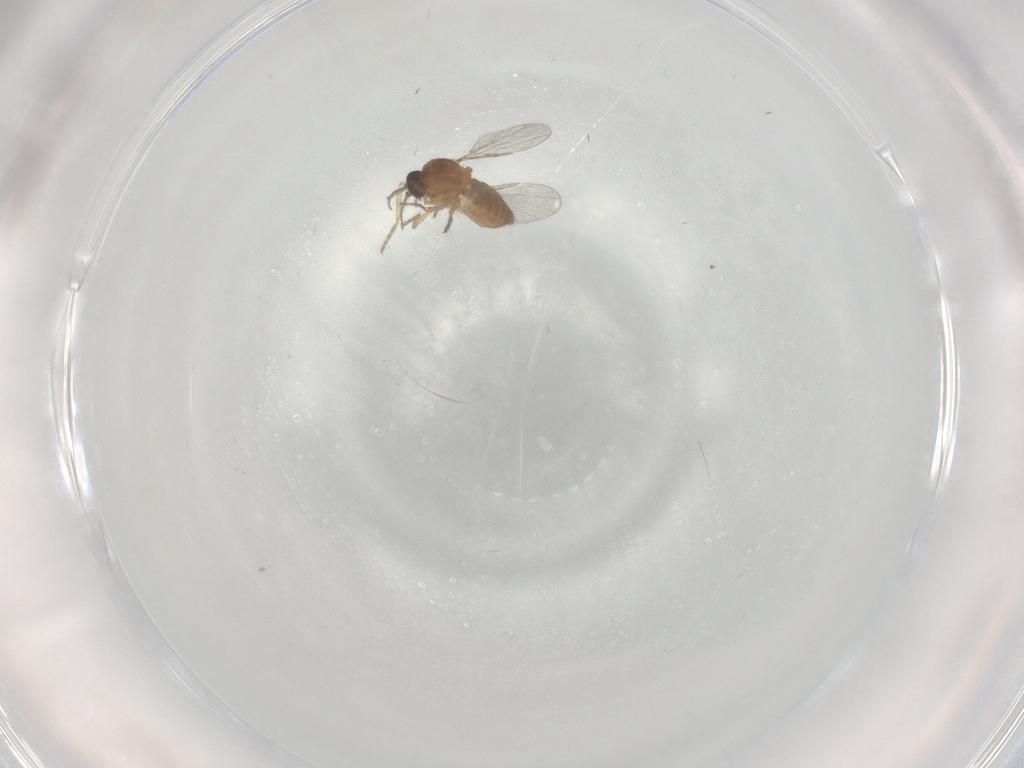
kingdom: Animalia
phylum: Arthropoda
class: Insecta
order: Diptera
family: Ceratopogonidae
